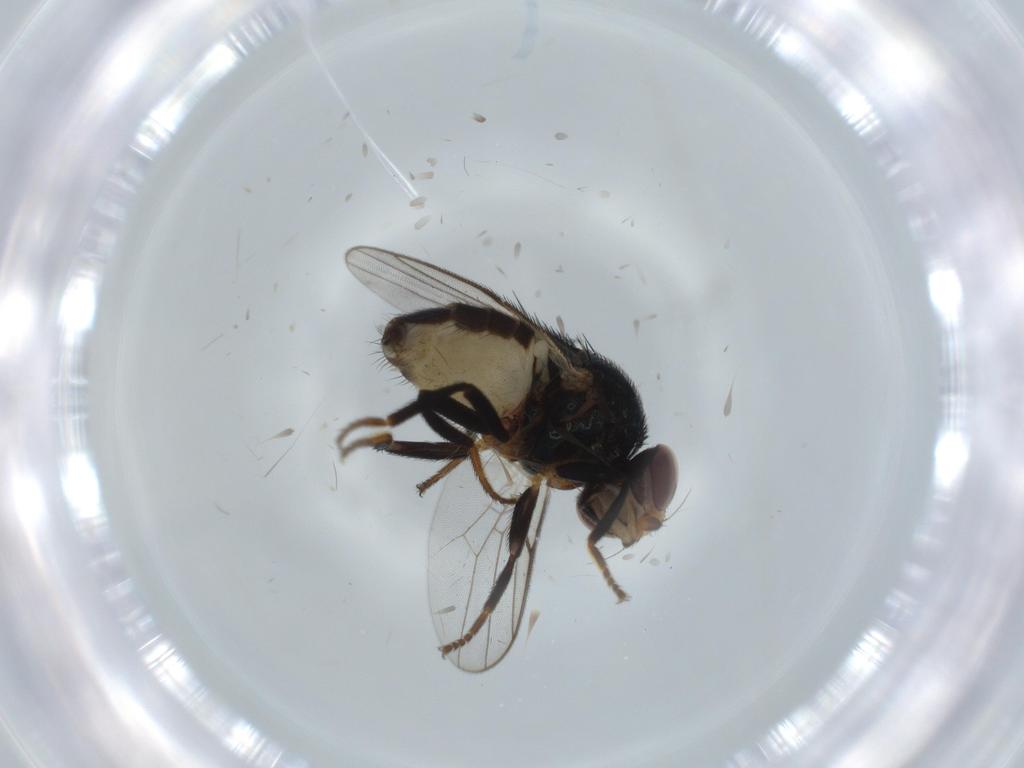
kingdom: Animalia
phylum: Arthropoda
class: Insecta
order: Diptera
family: Chloropidae
